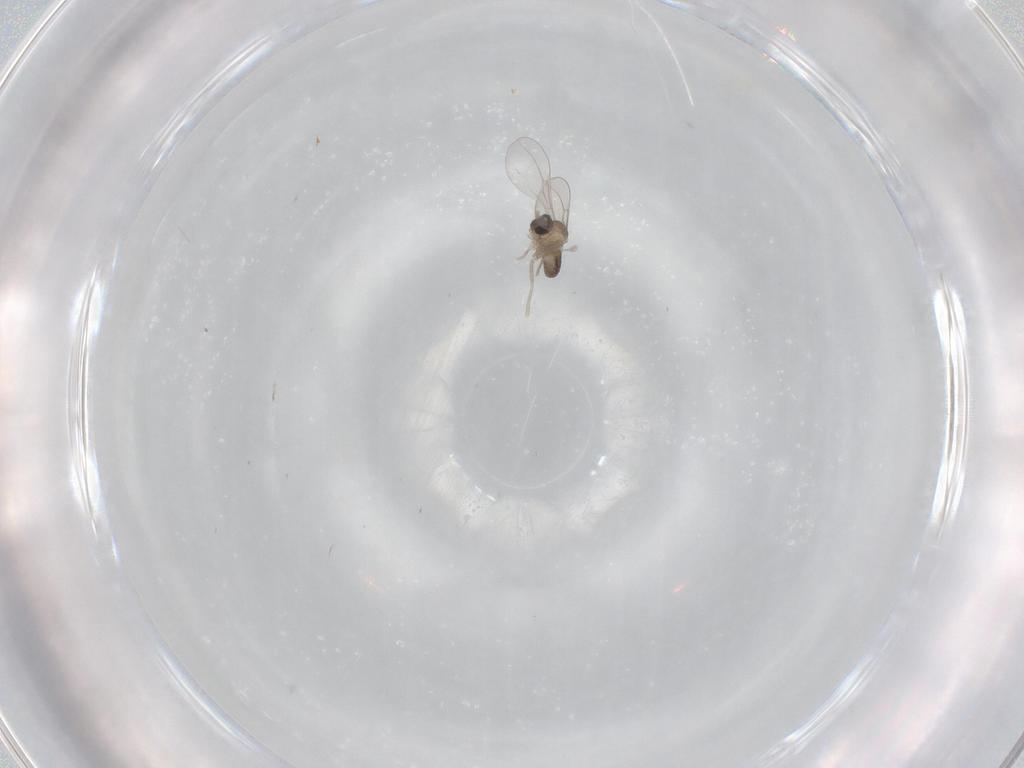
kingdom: Animalia
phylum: Arthropoda
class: Insecta
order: Diptera
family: Cecidomyiidae
